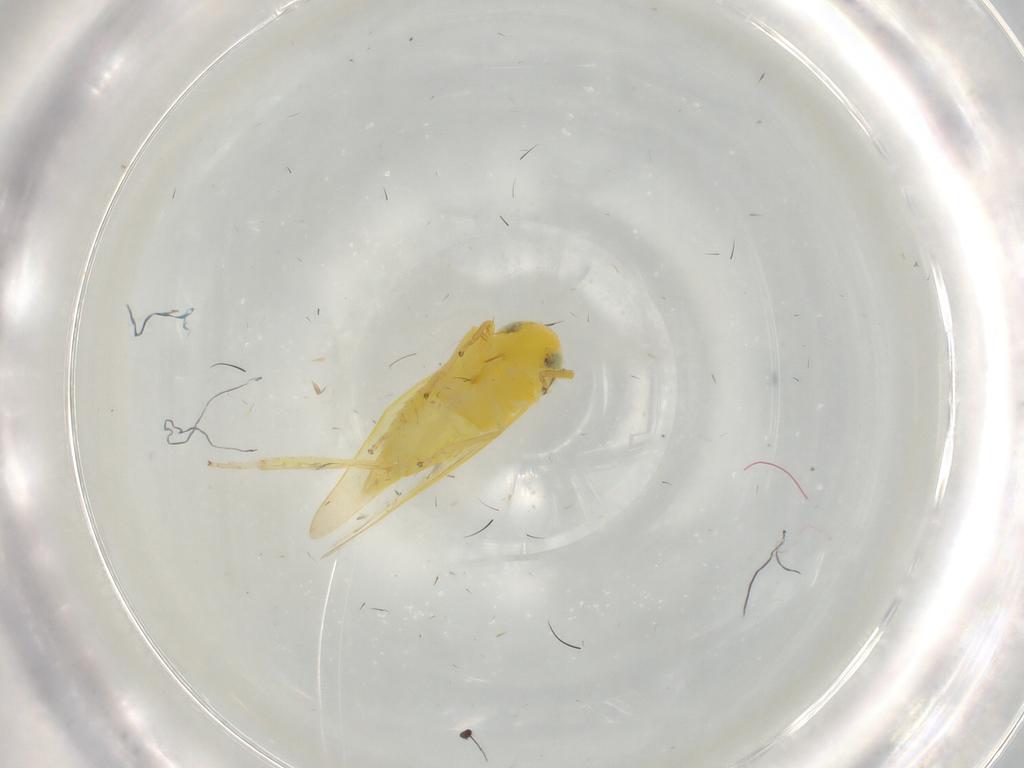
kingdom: Animalia
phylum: Arthropoda
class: Insecta
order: Hemiptera
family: Cicadellidae
